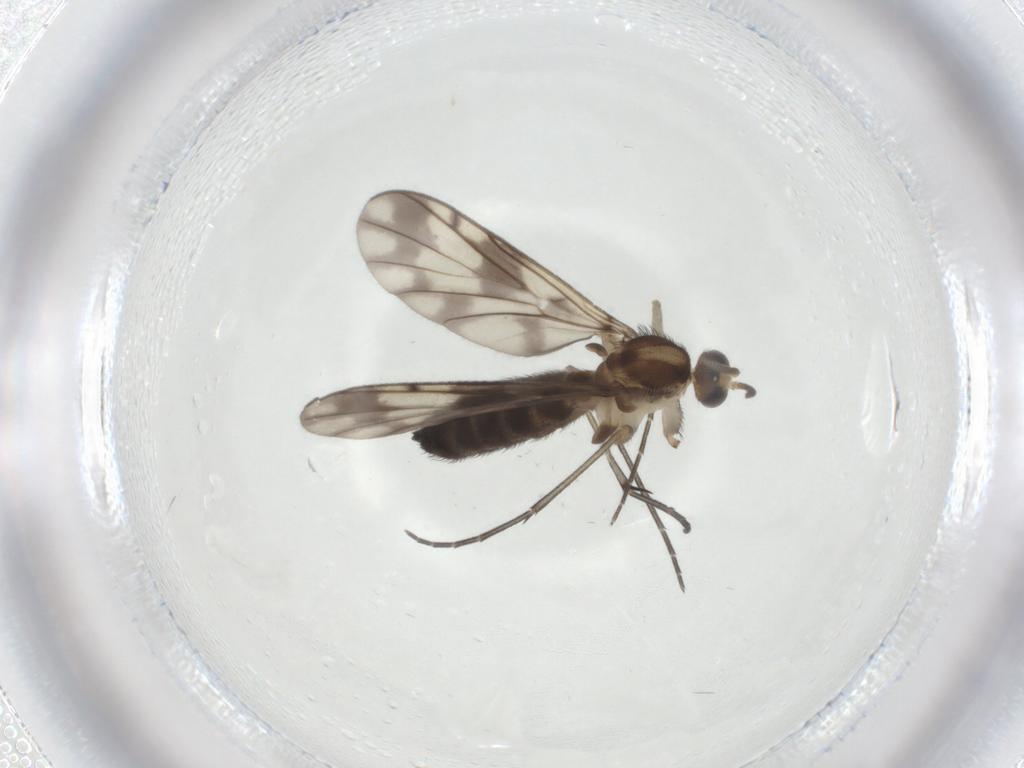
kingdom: Animalia
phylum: Arthropoda
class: Insecta
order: Diptera
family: Keroplatidae
